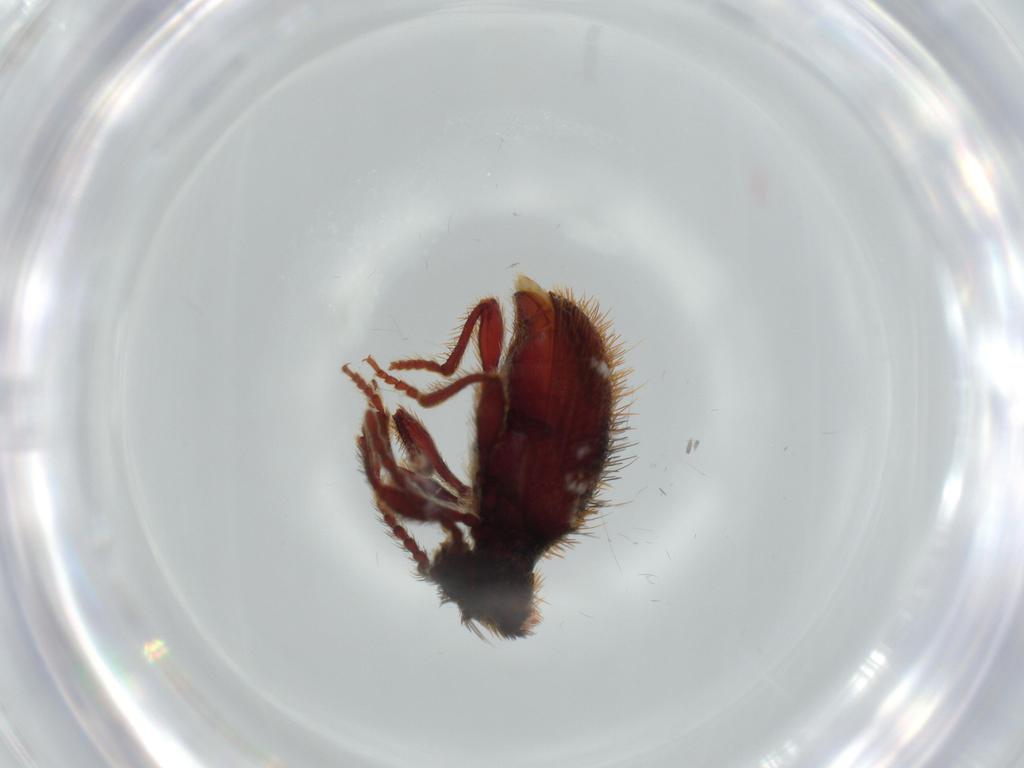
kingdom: Animalia
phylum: Arthropoda
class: Insecta
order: Coleoptera
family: Ptinidae
